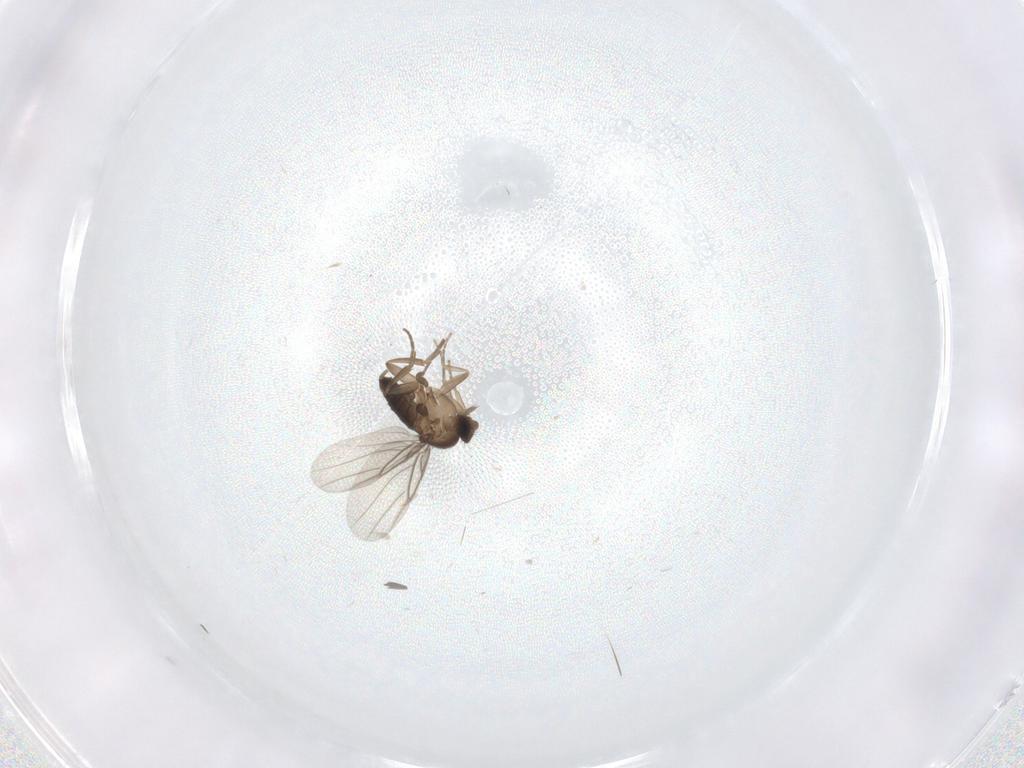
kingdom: Animalia
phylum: Arthropoda
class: Insecta
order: Diptera
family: Phoridae
